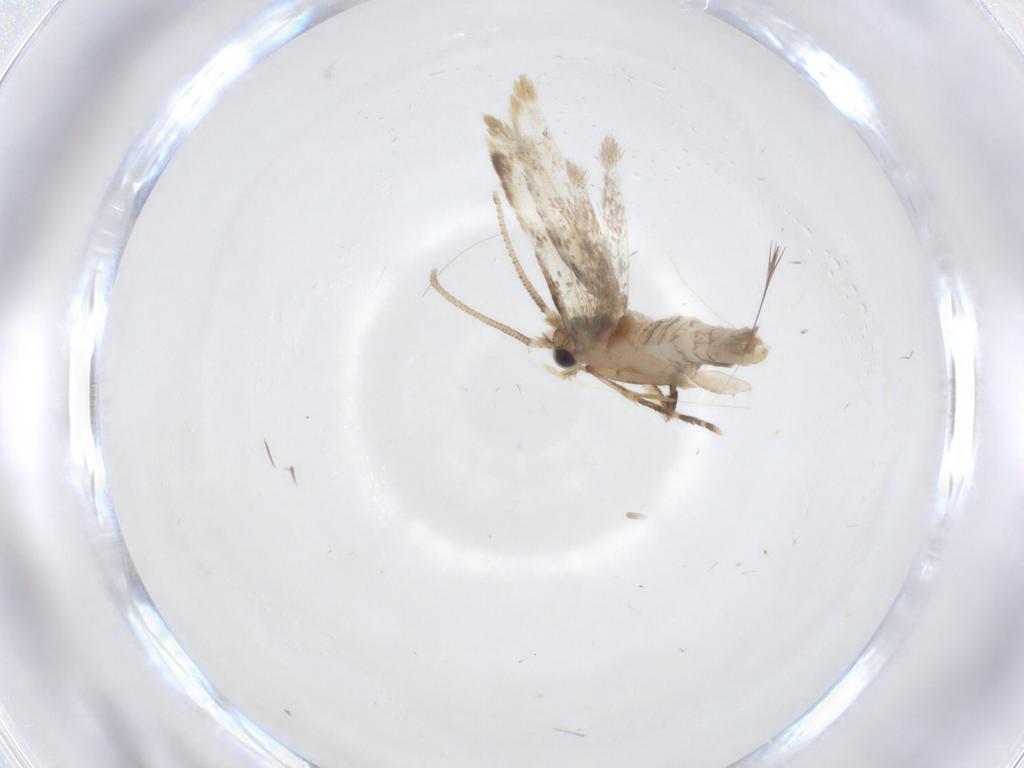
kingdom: Animalia
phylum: Arthropoda
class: Insecta
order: Lepidoptera
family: Dryadaulidae
